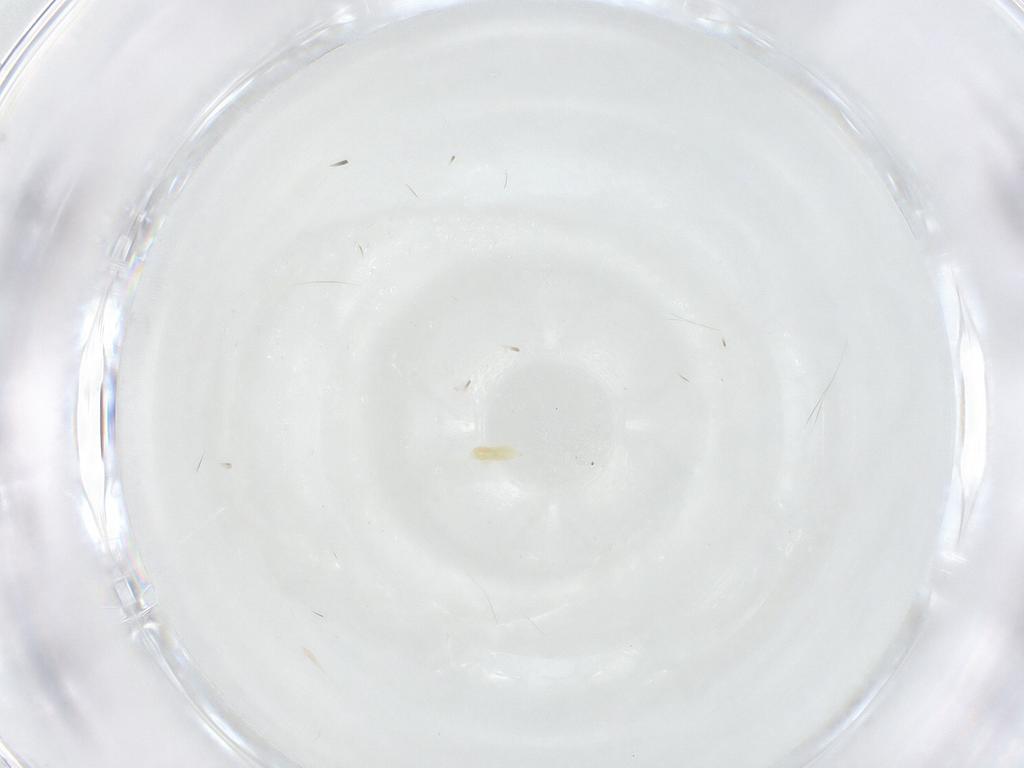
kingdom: Animalia
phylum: Arthropoda
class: Arachnida
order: Trombidiformes
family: Eupodidae
